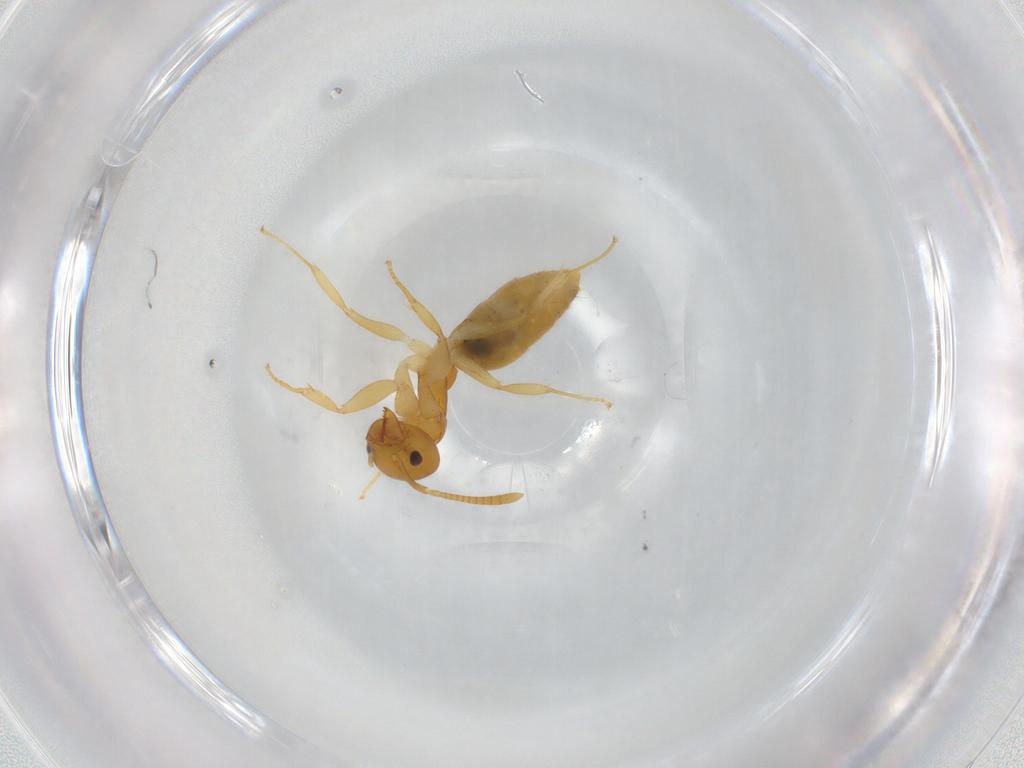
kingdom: Animalia
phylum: Arthropoda
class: Insecta
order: Hymenoptera
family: Formicidae
